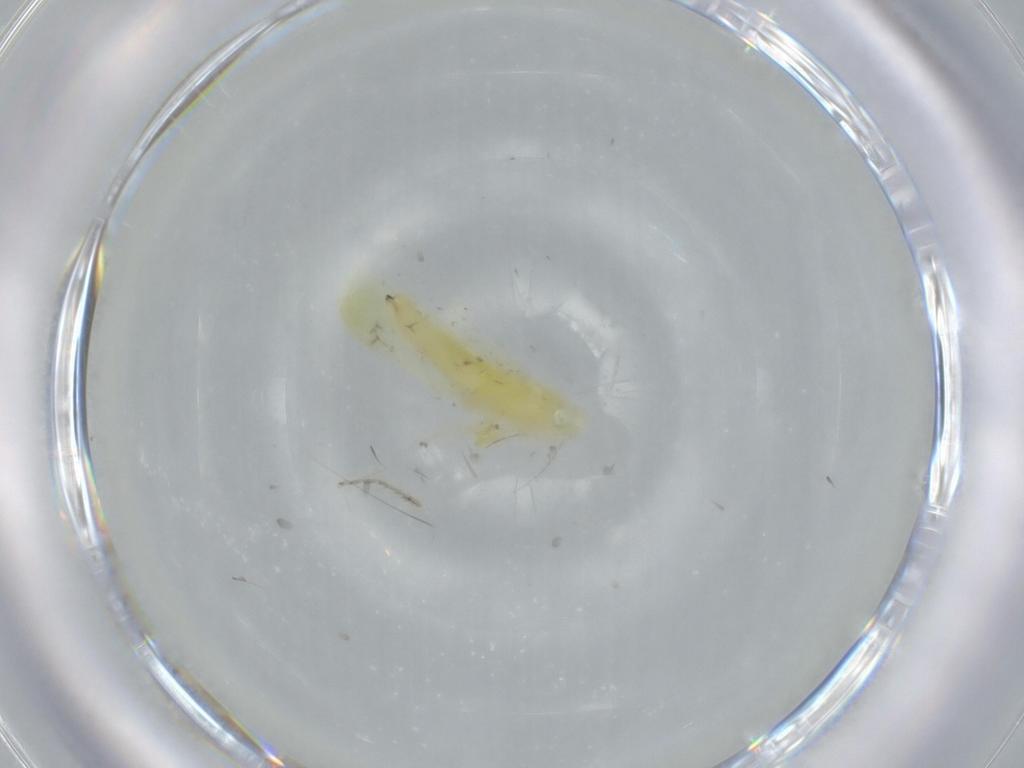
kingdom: Animalia
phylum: Arthropoda
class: Insecta
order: Hemiptera
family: Cicadellidae
